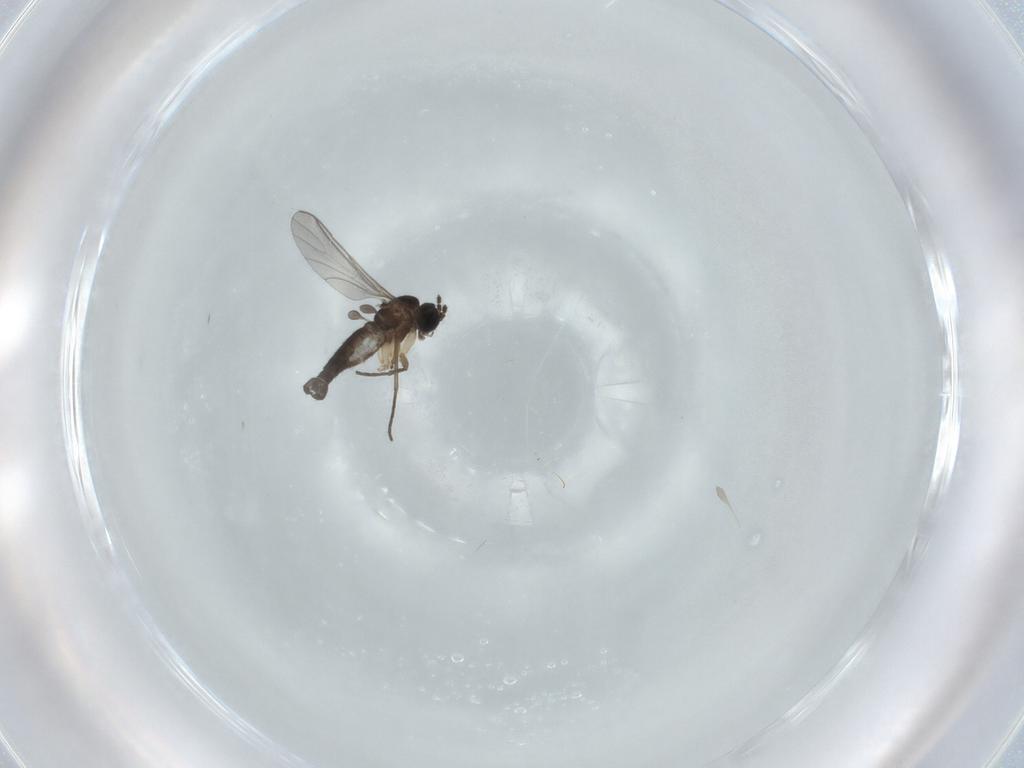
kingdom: Animalia
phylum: Arthropoda
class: Insecta
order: Diptera
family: Sciaridae
